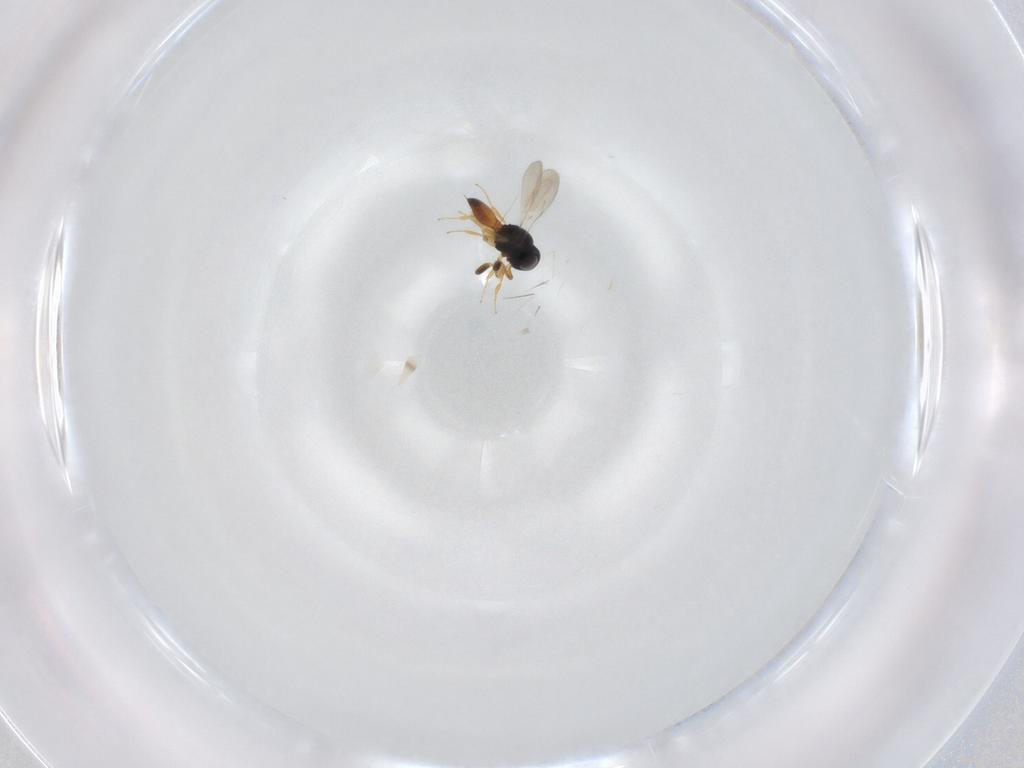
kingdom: Animalia
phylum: Arthropoda
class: Insecta
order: Hymenoptera
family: Scelionidae
